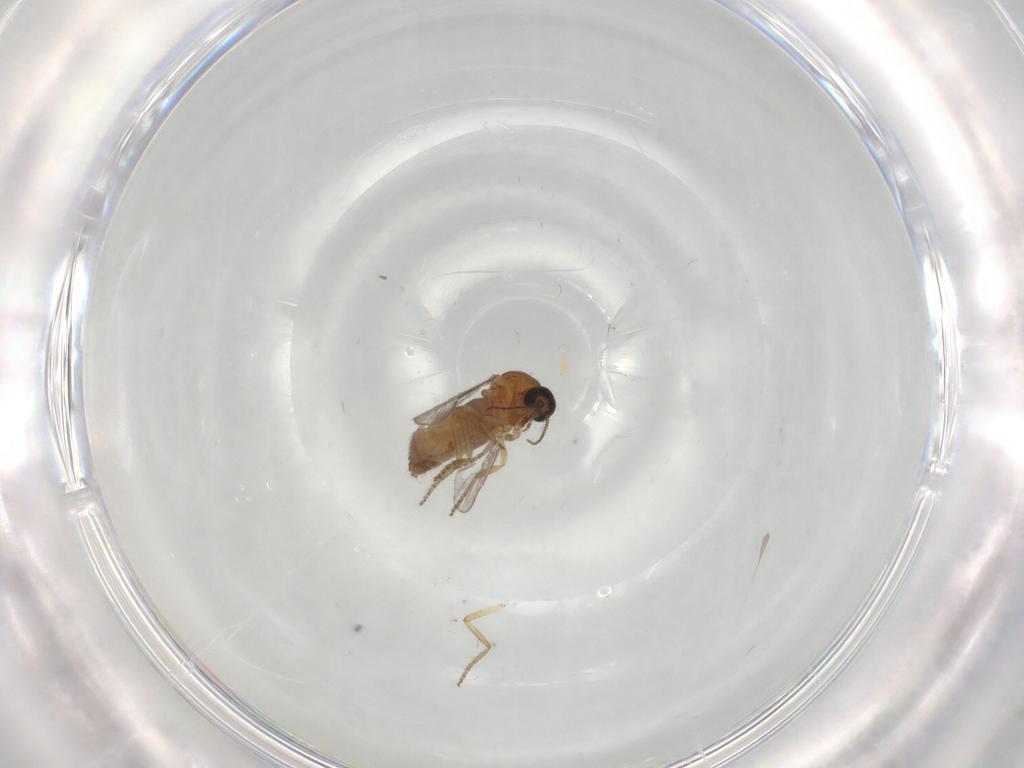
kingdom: Animalia
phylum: Arthropoda
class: Insecta
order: Diptera
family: Ceratopogonidae
